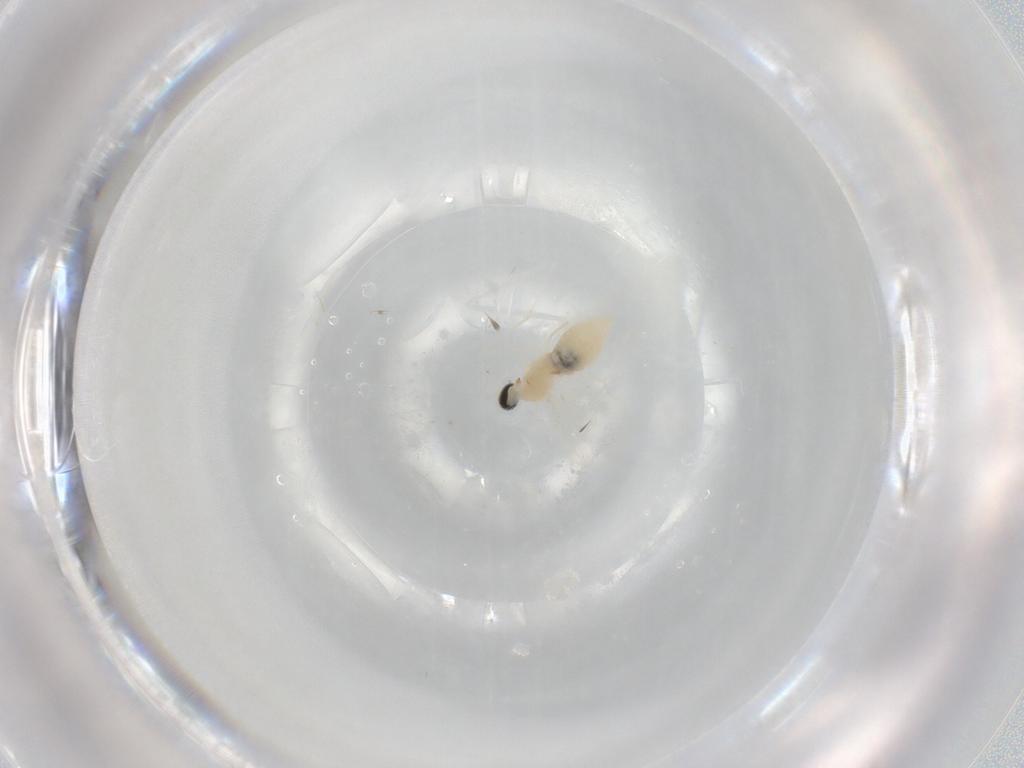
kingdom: Animalia
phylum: Arthropoda
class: Insecta
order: Diptera
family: Cecidomyiidae
